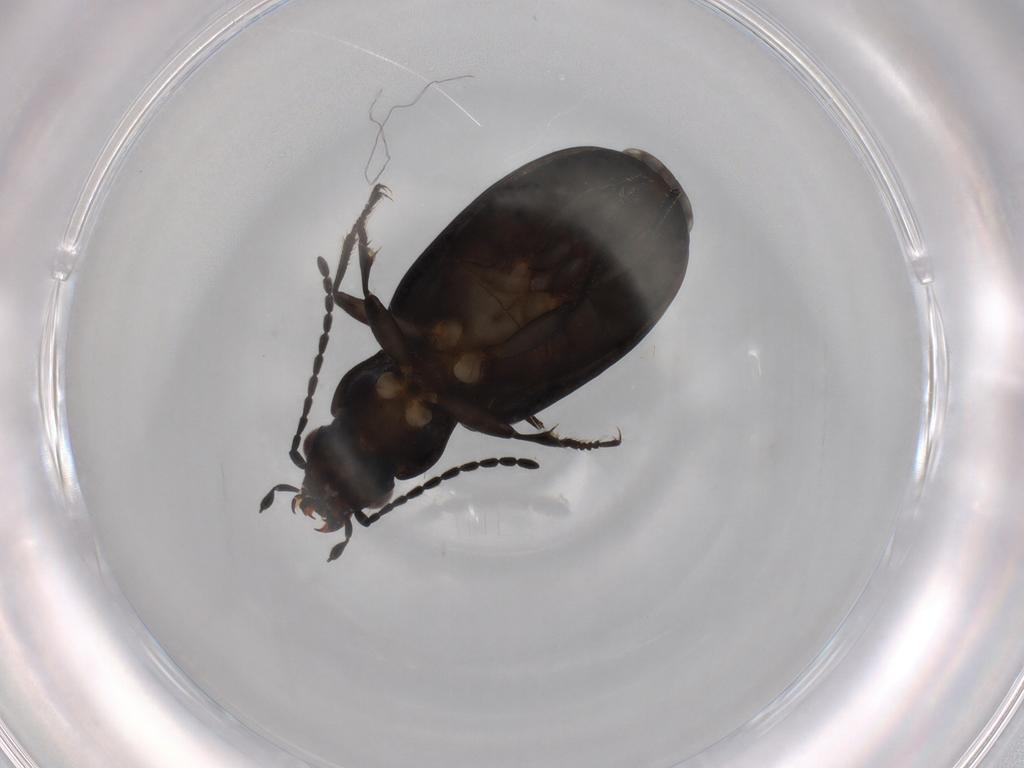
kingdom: Animalia
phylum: Arthropoda
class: Insecta
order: Coleoptera
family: Carabidae
